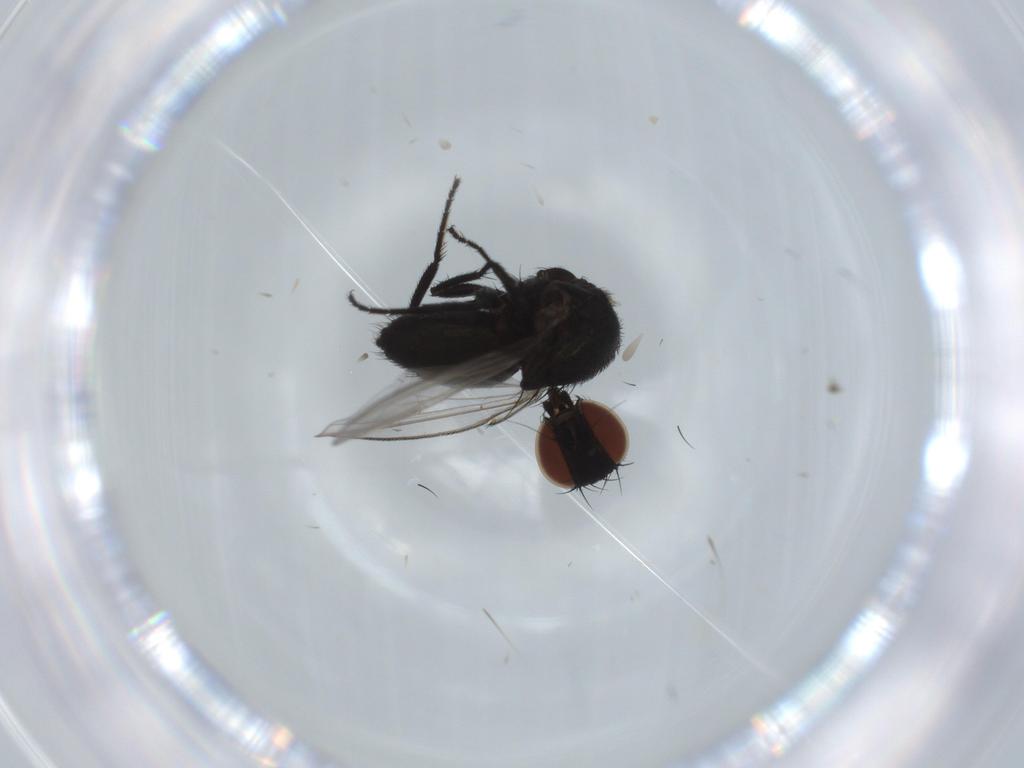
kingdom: Animalia
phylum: Arthropoda
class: Insecta
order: Diptera
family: Milichiidae
